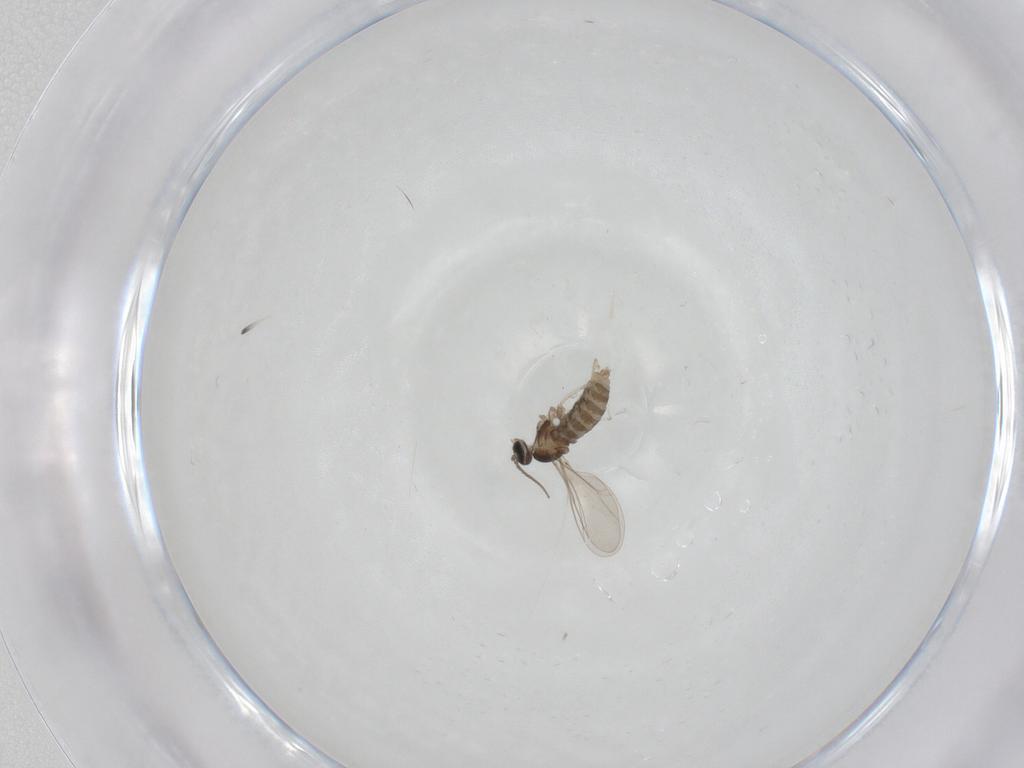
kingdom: Animalia
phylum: Arthropoda
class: Insecta
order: Diptera
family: Cecidomyiidae
